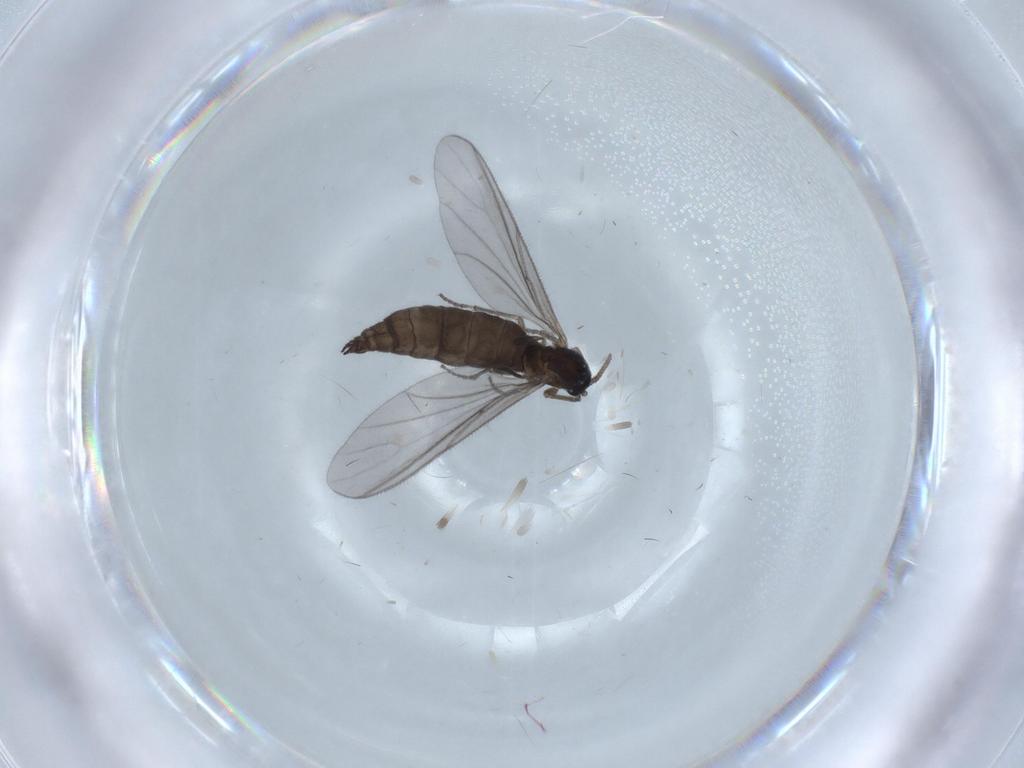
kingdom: Animalia
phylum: Arthropoda
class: Insecta
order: Diptera
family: Sciaridae
